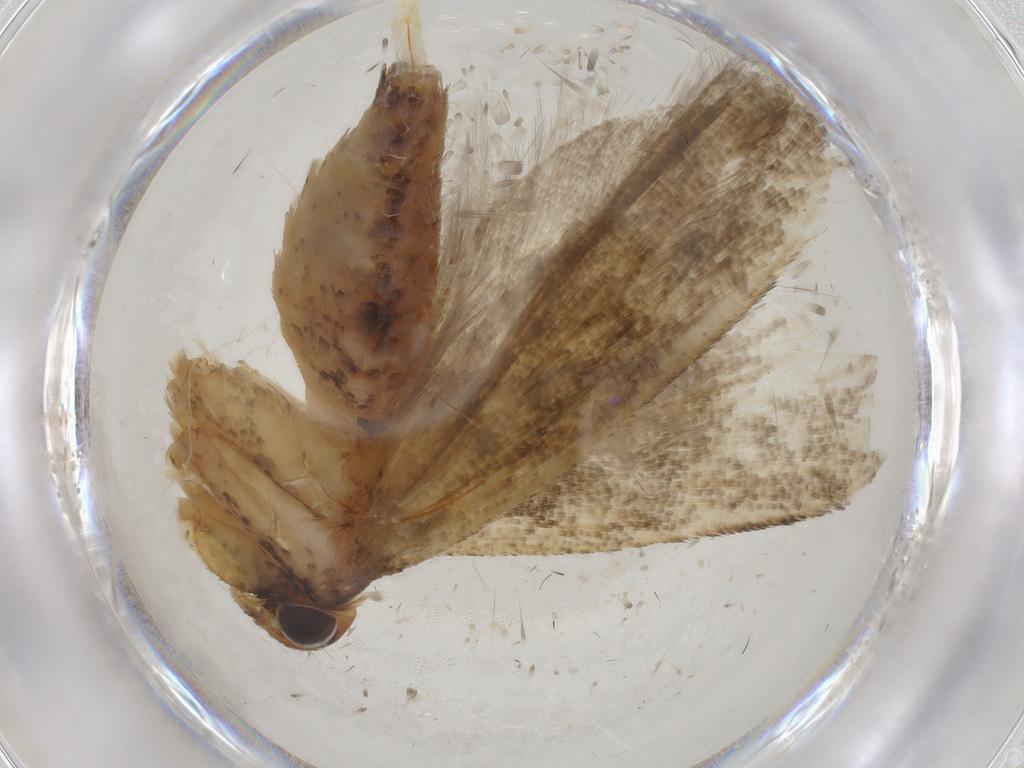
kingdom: Animalia
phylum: Arthropoda
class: Insecta
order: Lepidoptera
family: Gelechiidae
